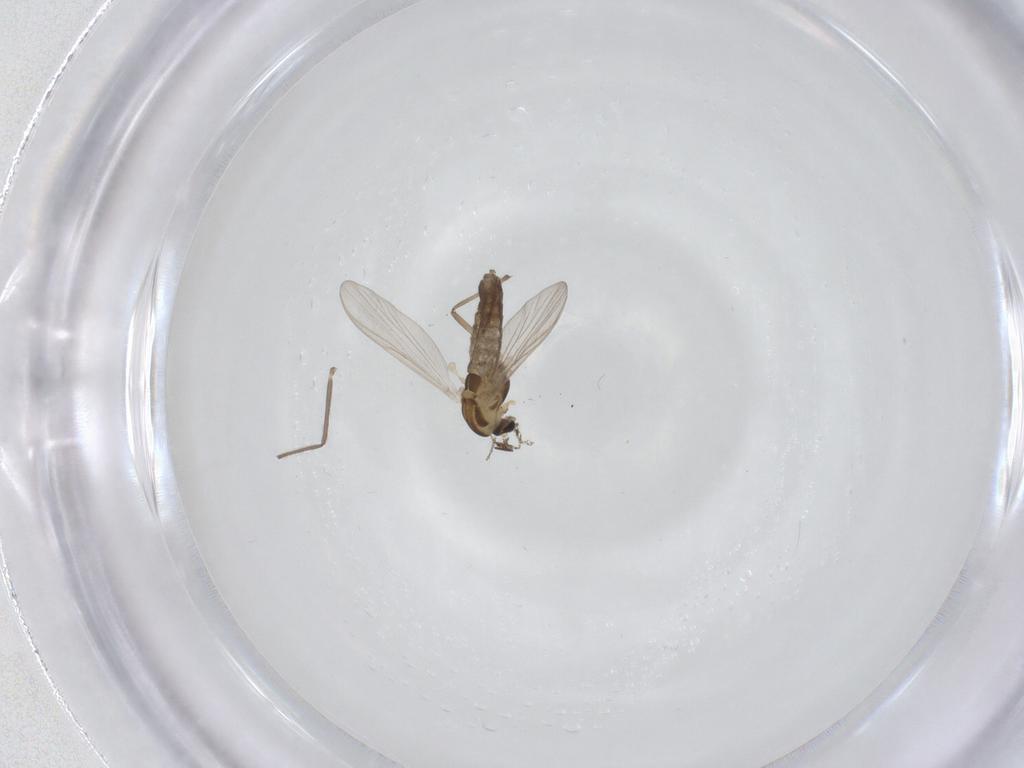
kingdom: Animalia
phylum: Arthropoda
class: Insecta
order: Diptera
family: Chironomidae
